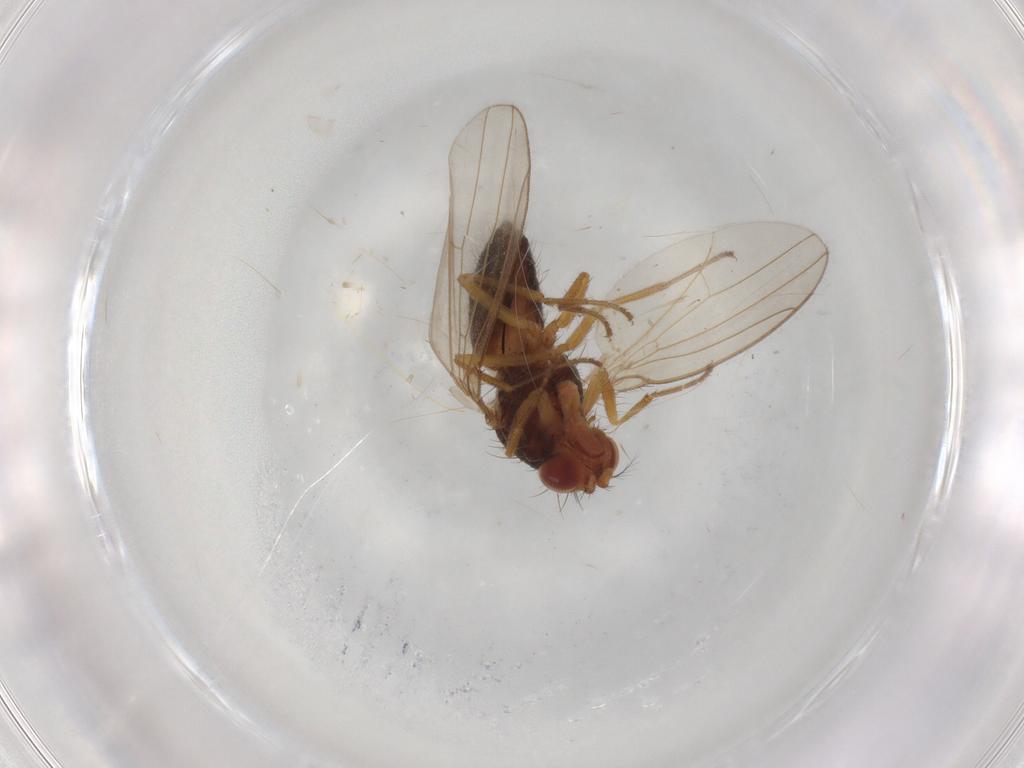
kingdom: Animalia
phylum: Arthropoda
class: Insecta
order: Diptera
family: Drosophilidae
